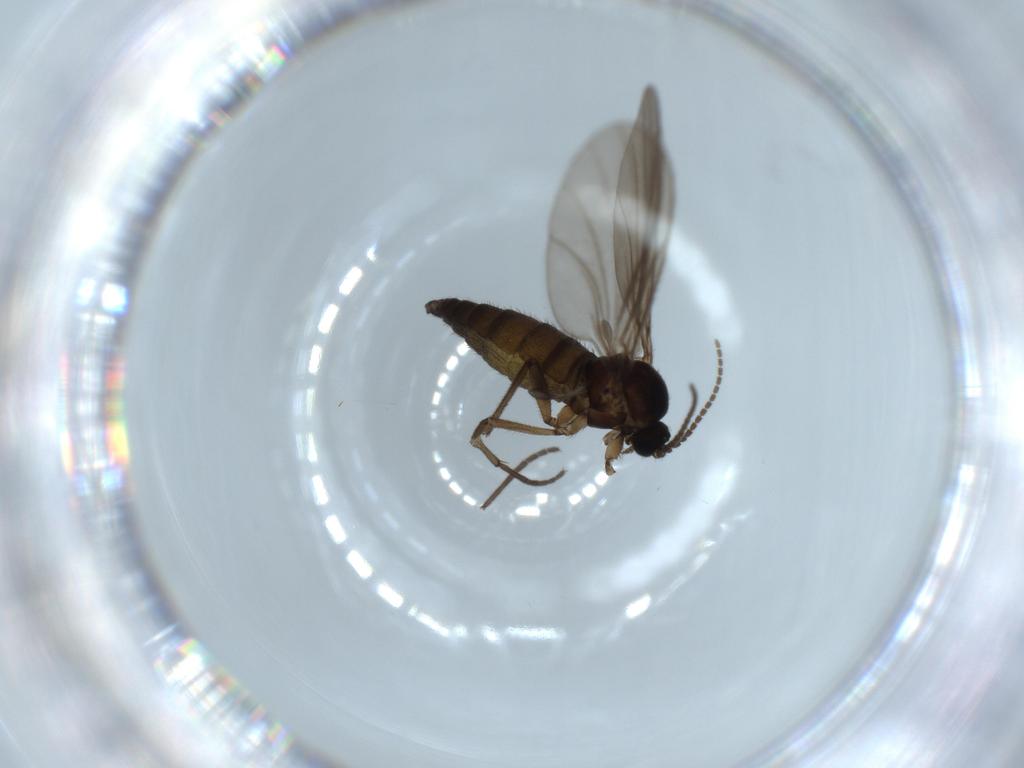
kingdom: Animalia
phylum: Arthropoda
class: Insecta
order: Diptera
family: Sciaridae
